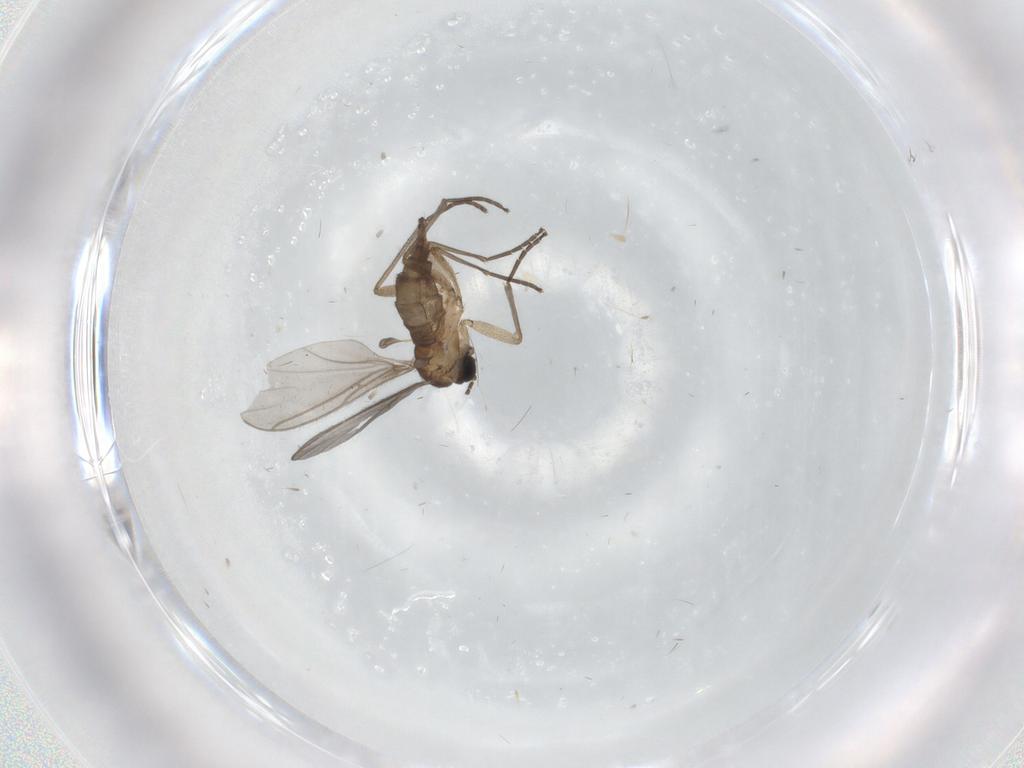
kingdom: Animalia
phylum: Arthropoda
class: Insecta
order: Diptera
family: Sciaridae
